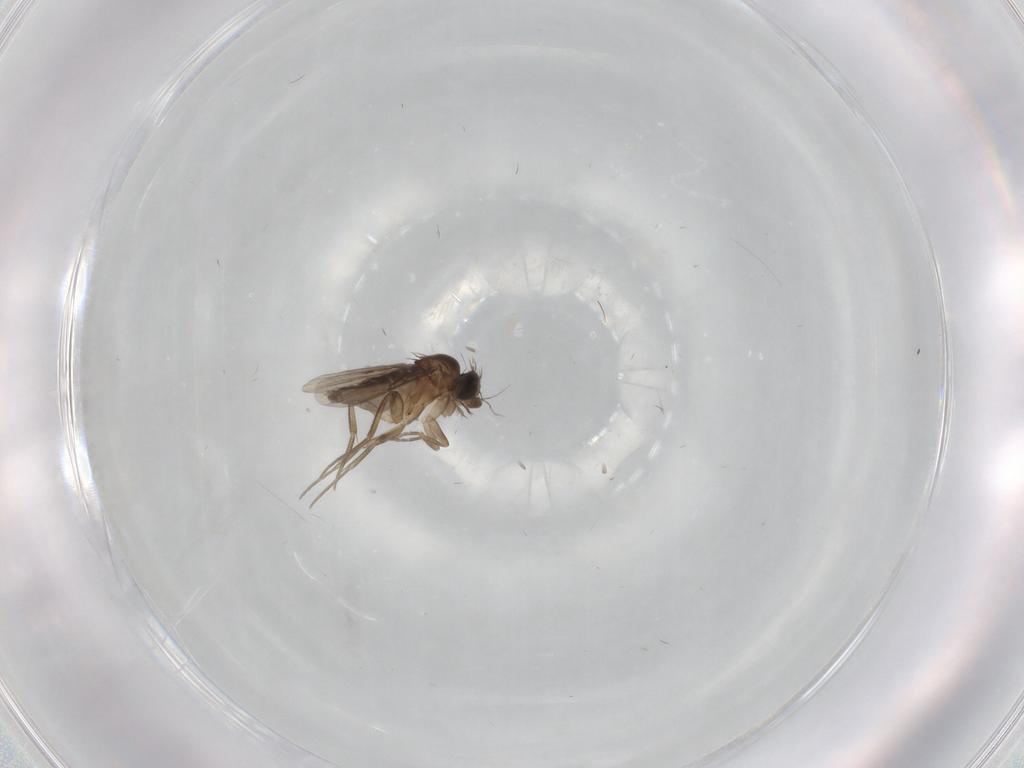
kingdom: Animalia
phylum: Arthropoda
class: Insecta
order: Diptera
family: Phoridae
